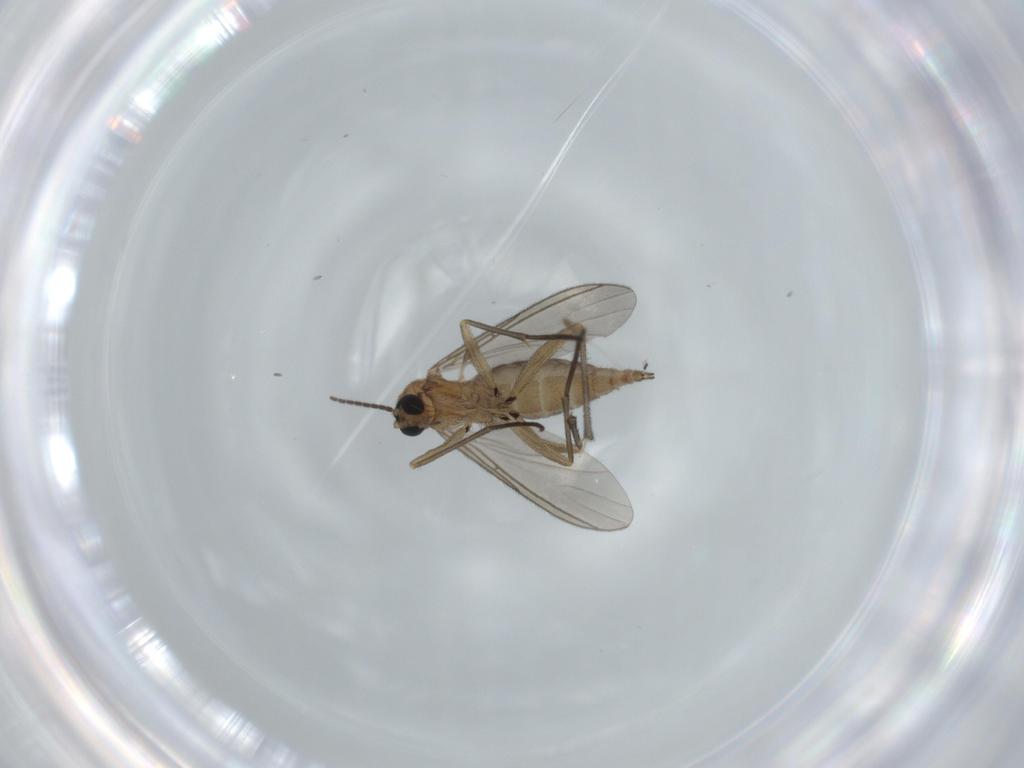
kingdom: Animalia
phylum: Arthropoda
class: Insecta
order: Diptera
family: Sciaridae
